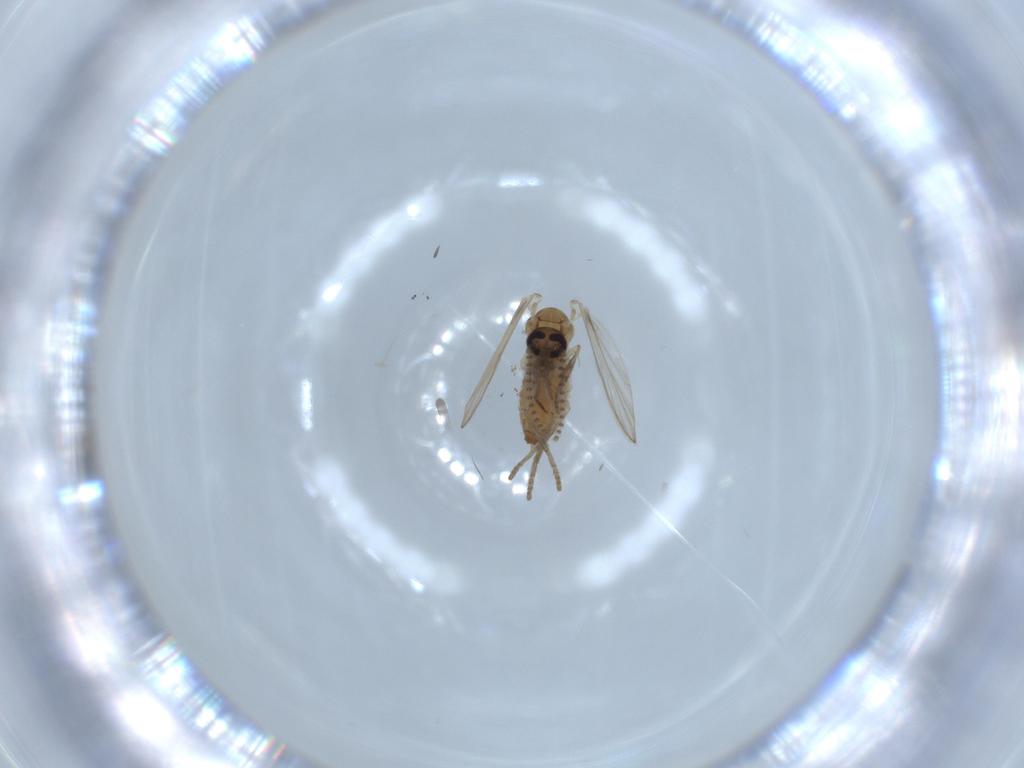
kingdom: Animalia
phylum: Arthropoda
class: Insecta
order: Diptera
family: Psychodidae
